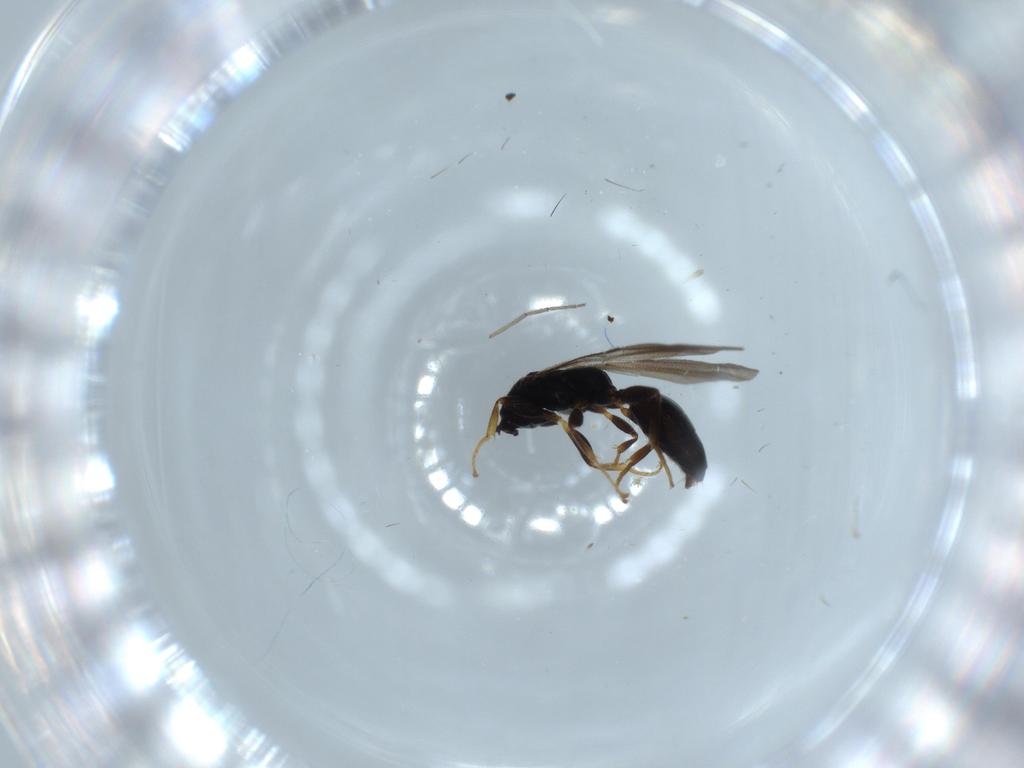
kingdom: Animalia
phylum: Arthropoda
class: Insecta
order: Hymenoptera
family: Bethylidae
